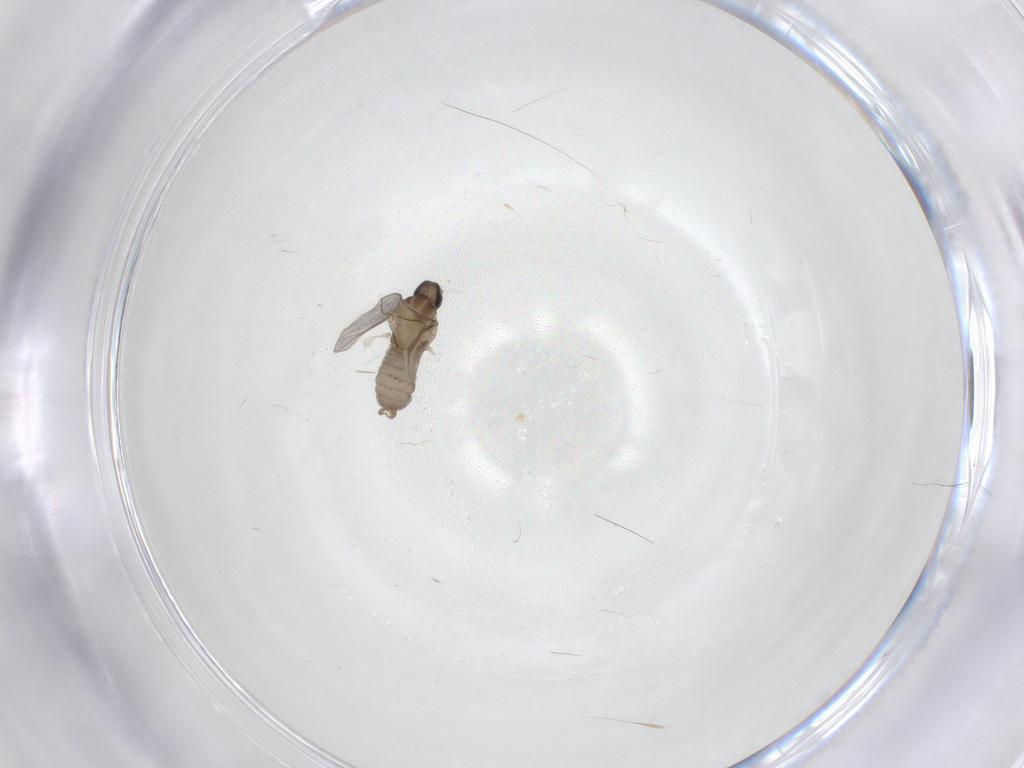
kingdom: Animalia
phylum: Arthropoda
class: Insecta
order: Diptera
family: Cecidomyiidae
